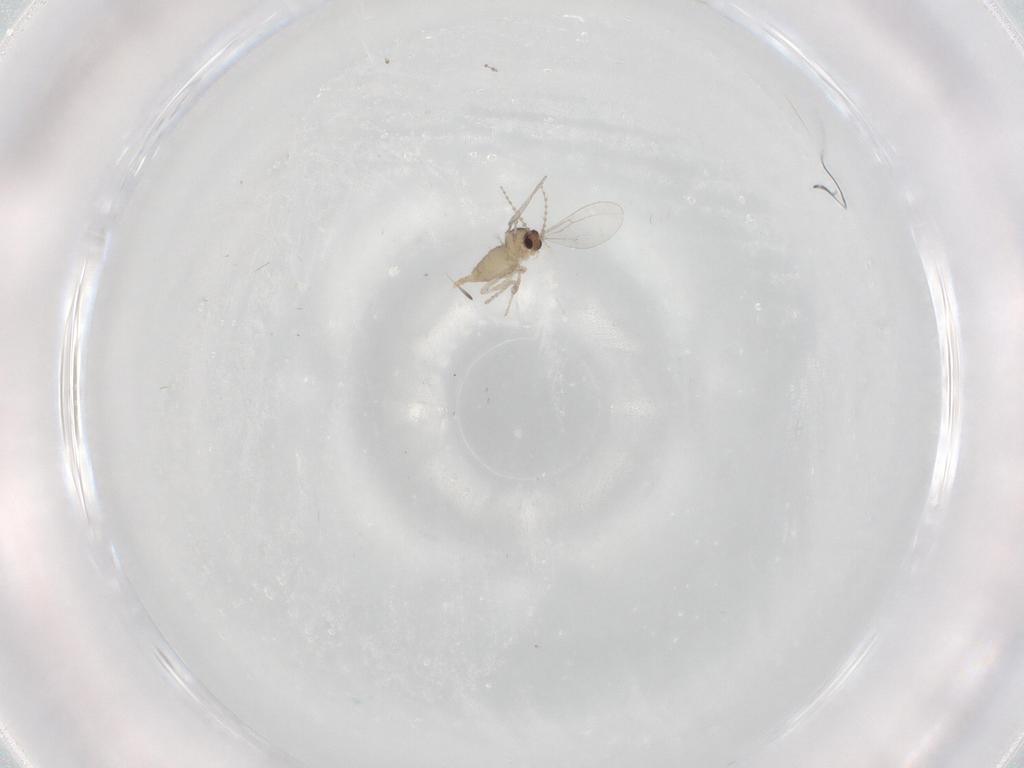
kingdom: Animalia
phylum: Arthropoda
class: Insecta
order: Diptera
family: Cecidomyiidae
